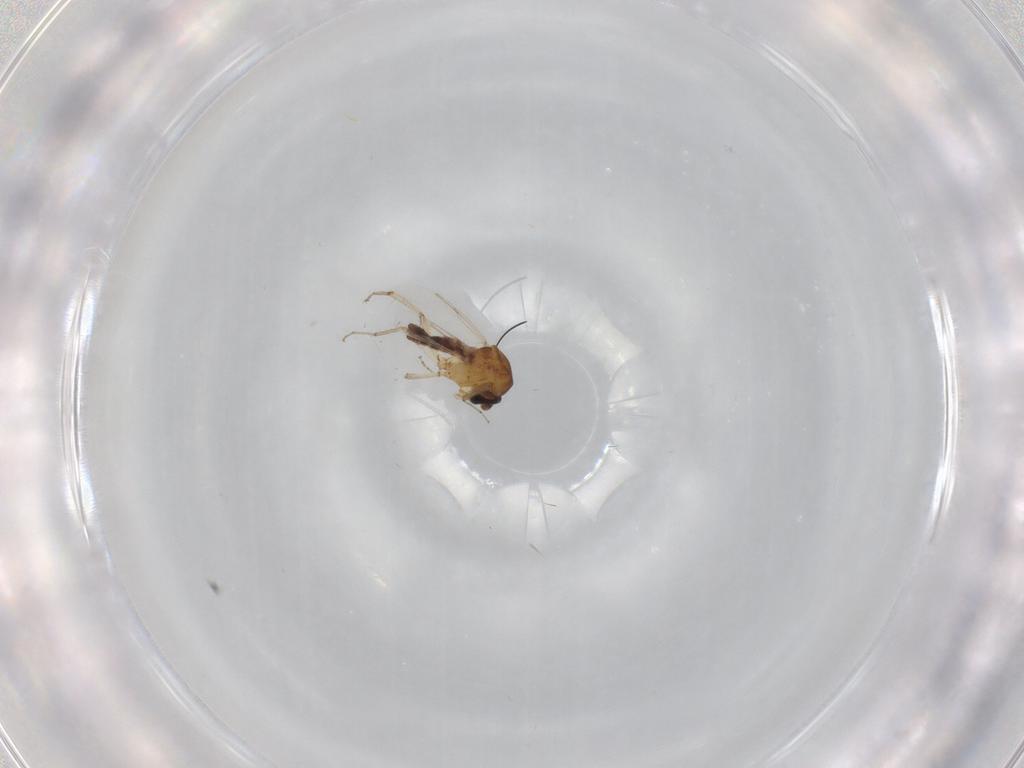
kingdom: Animalia
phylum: Arthropoda
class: Insecta
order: Diptera
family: Ceratopogonidae
